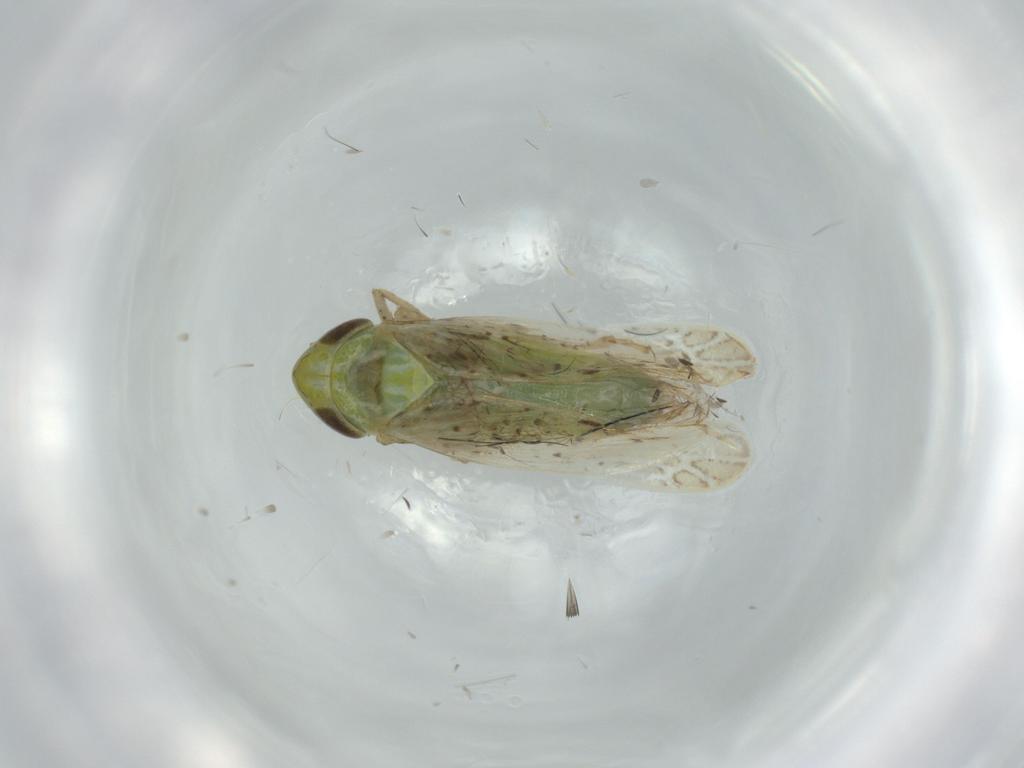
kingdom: Animalia
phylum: Arthropoda
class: Insecta
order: Hemiptera
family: Cicadellidae
